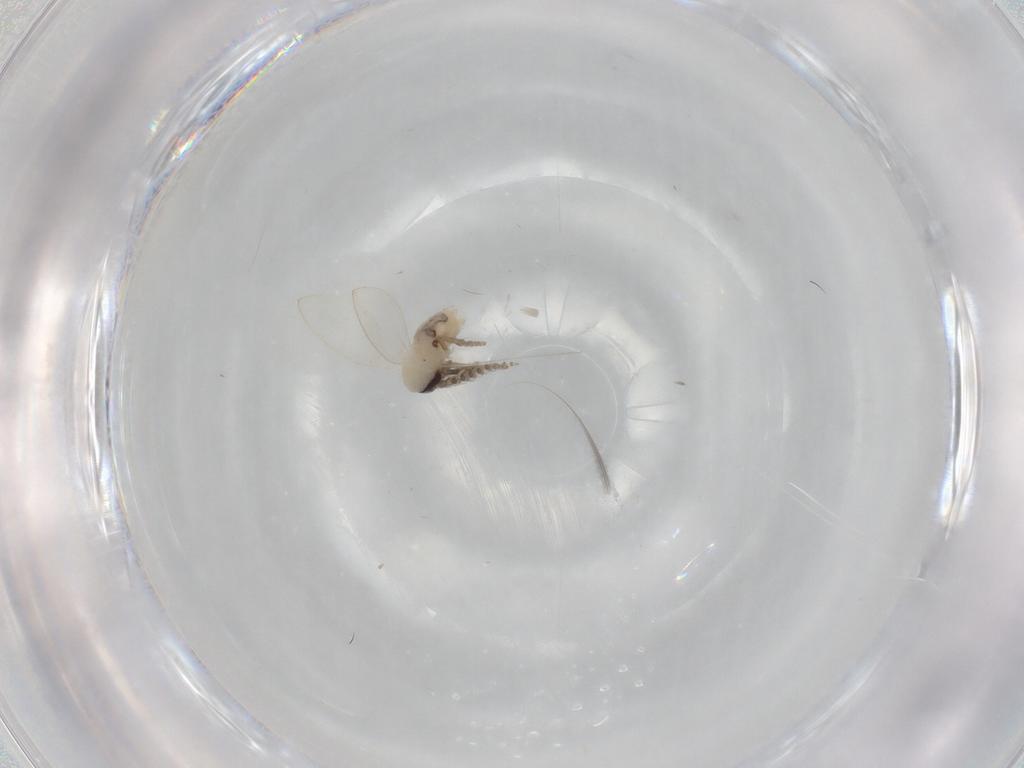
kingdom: Animalia
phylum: Arthropoda
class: Insecta
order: Diptera
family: Psychodidae
